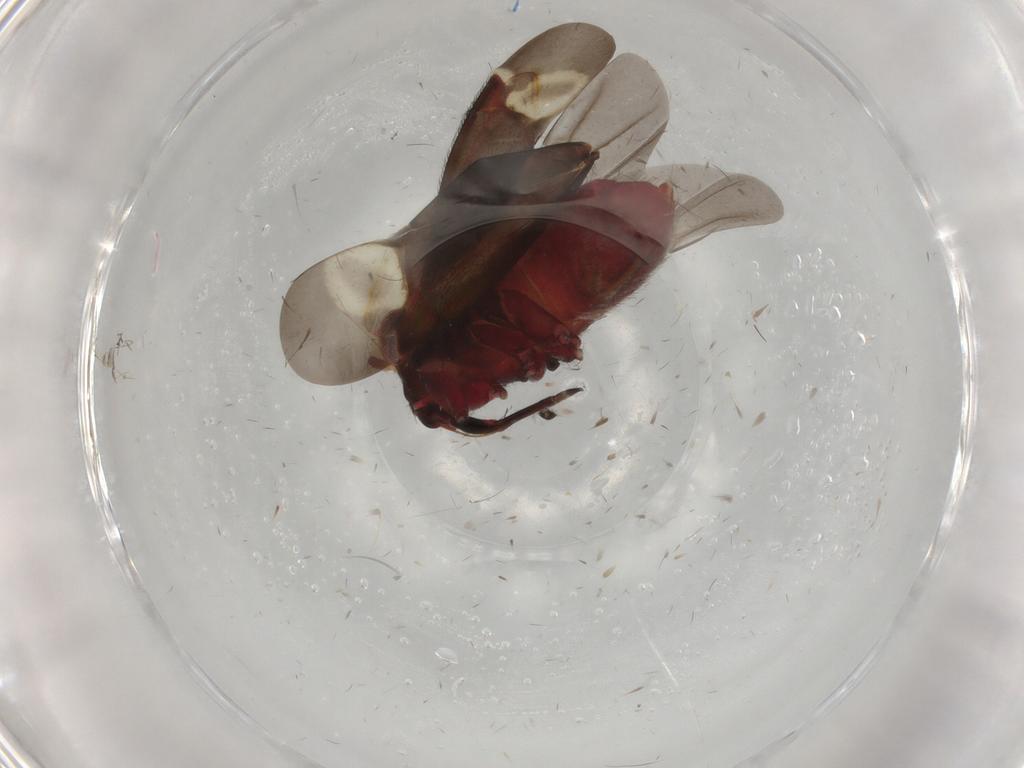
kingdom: Animalia
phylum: Arthropoda
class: Insecta
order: Hemiptera
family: Miridae
